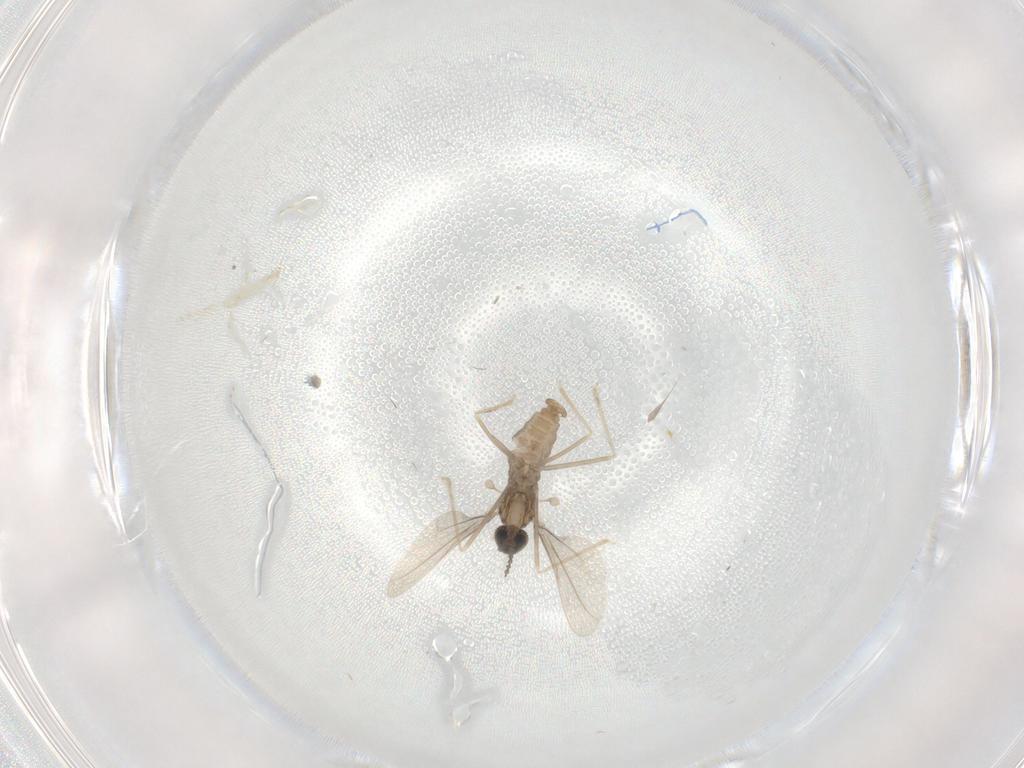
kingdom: Animalia
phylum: Arthropoda
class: Insecta
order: Diptera
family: Cecidomyiidae
